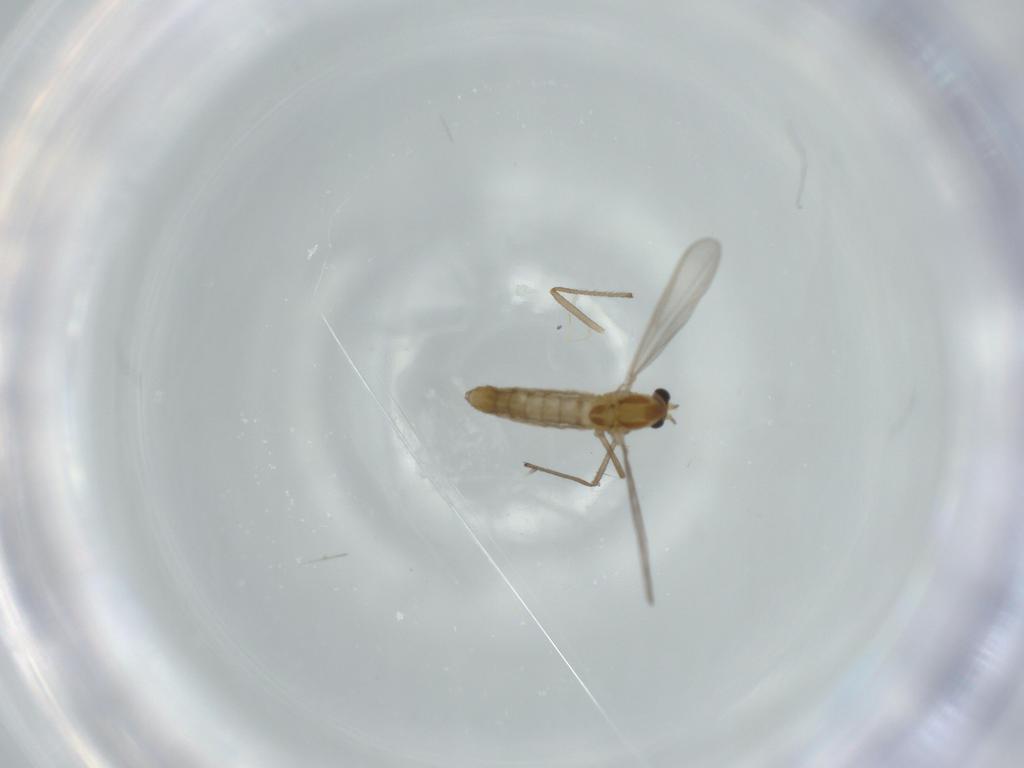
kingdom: Animalia
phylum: Arthropoda
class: Insecta
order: Diptera
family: Chironomidae
